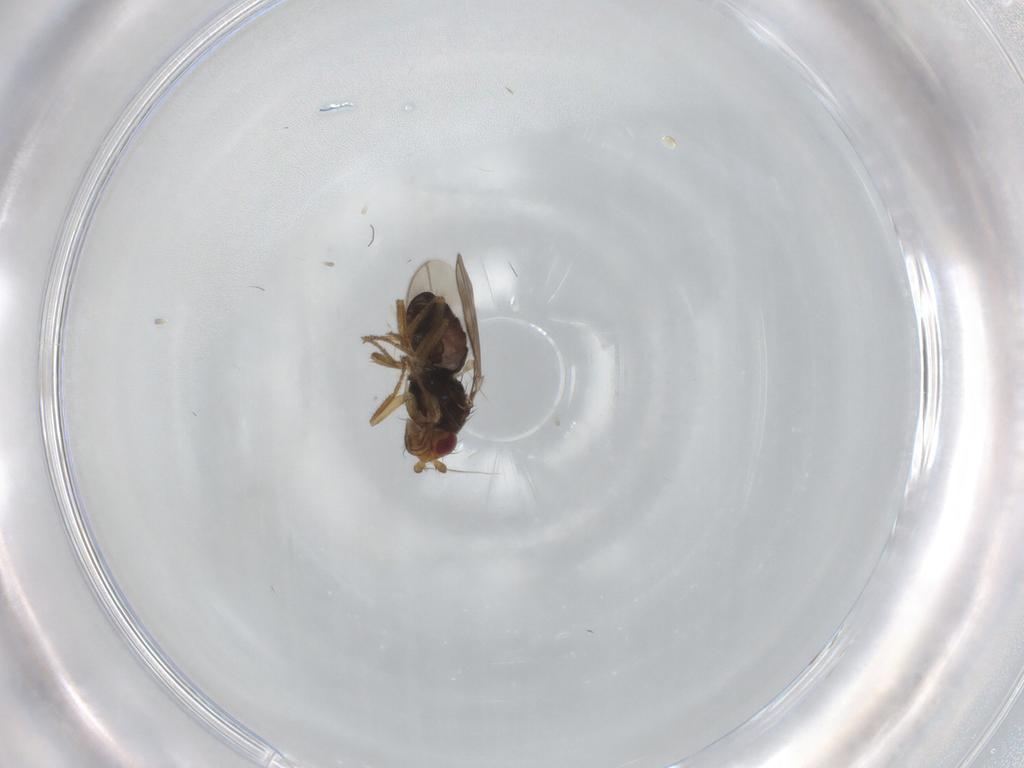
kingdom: Animalia
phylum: Arthropoda
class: Insecta
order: Diptera
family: Sphaeroceridae
